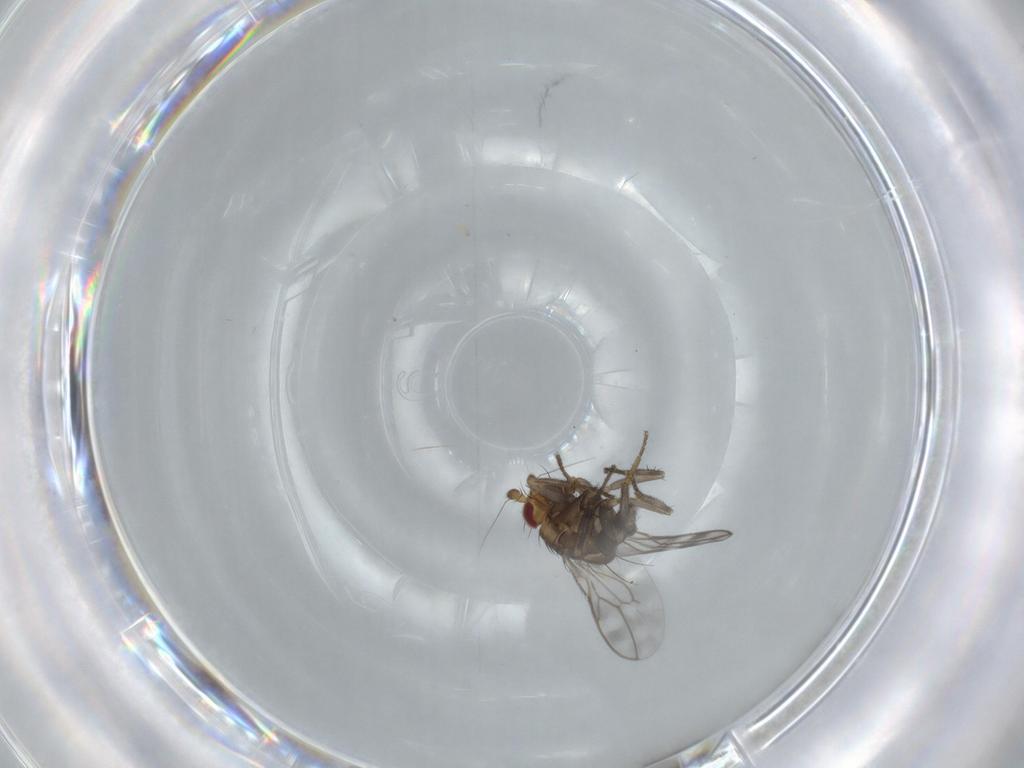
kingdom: Animalia
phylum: Arthropoda
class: Insecta
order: Diptera
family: Sphaeroceridae
